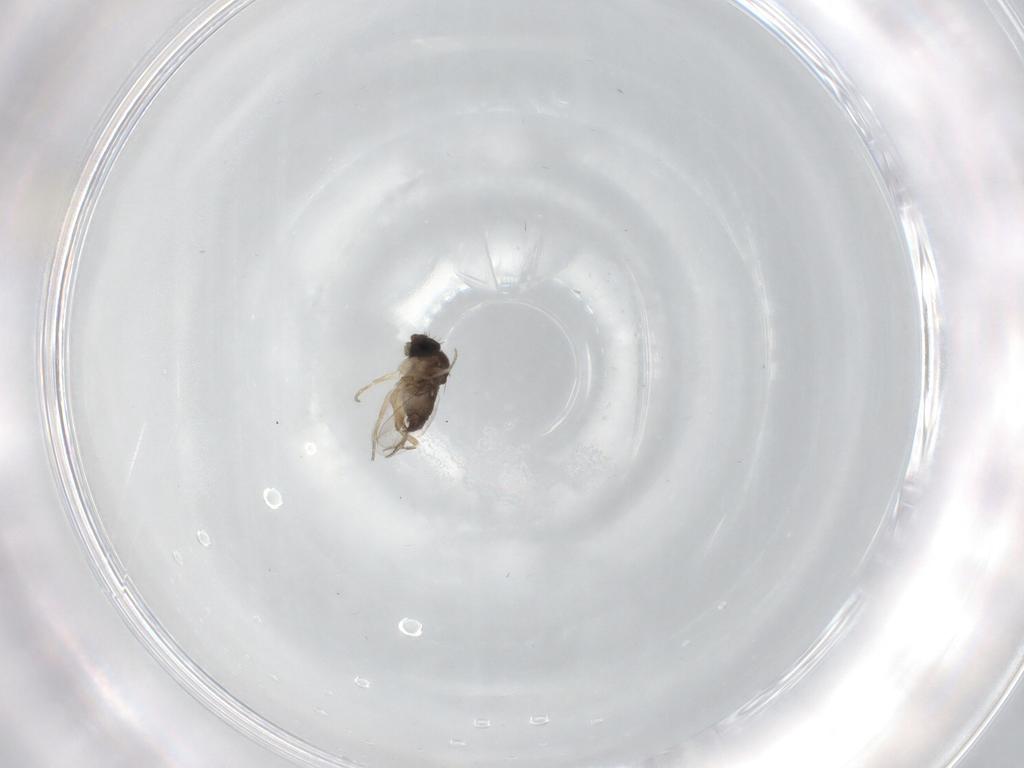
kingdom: Animalia
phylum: Arthropoda
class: Insecta
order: Diptera
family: Phoridae
